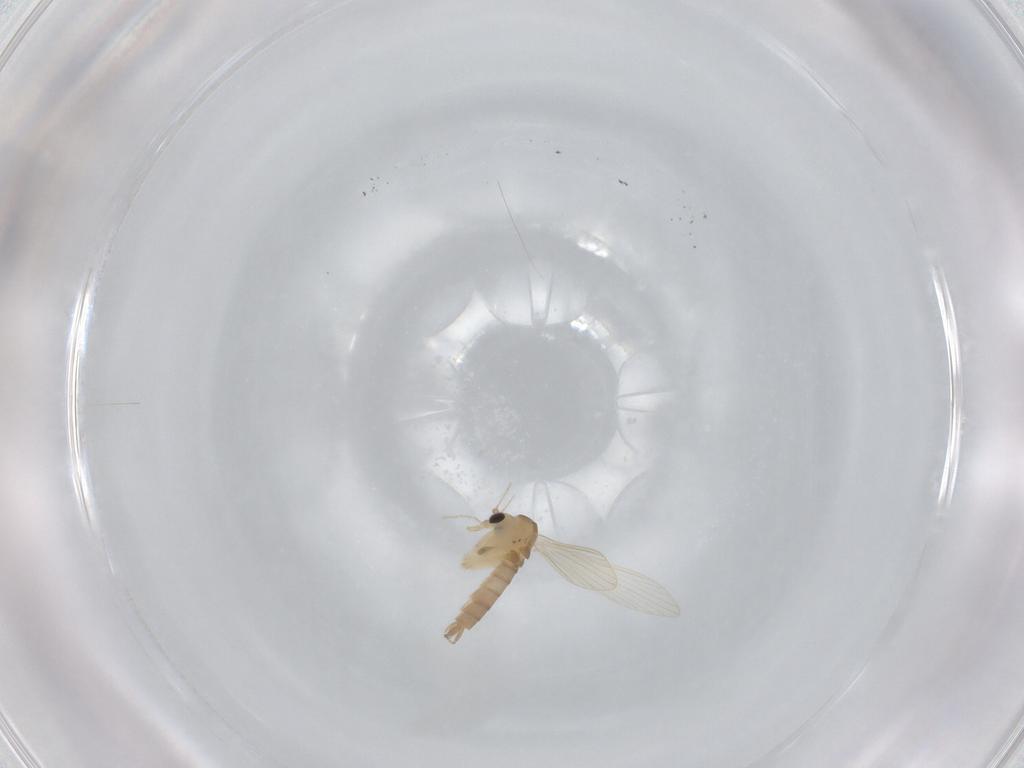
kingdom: Animalia
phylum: Arthropoda
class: Insecta
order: Diptera
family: Psychodidae
